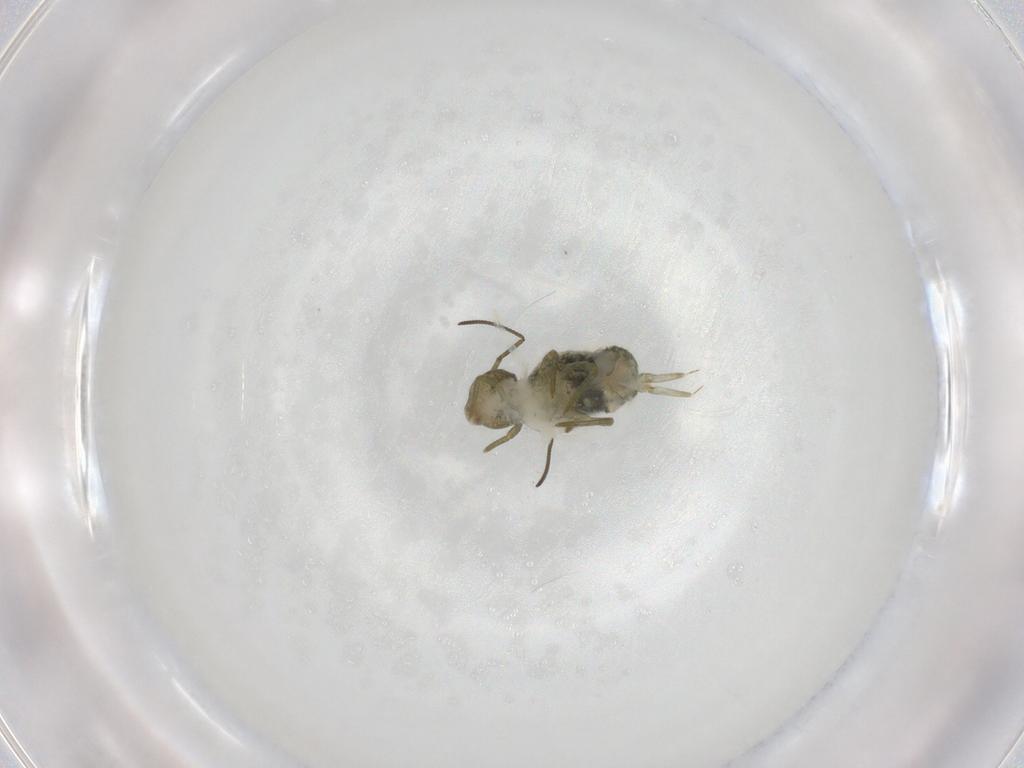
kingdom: Animalia
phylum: Arthropoda
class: Collembola
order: Symphypleona
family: Sminthuridae
